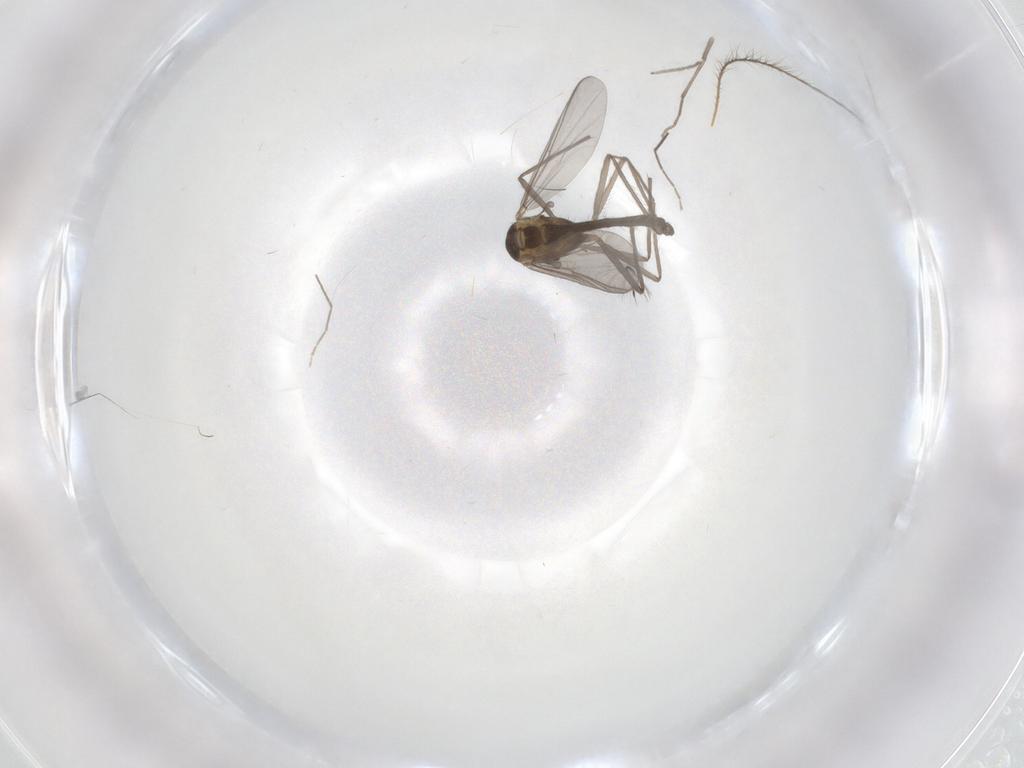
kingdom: Animalia
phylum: Arthropoda
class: Insecta
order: Diptera
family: Chironomidae
